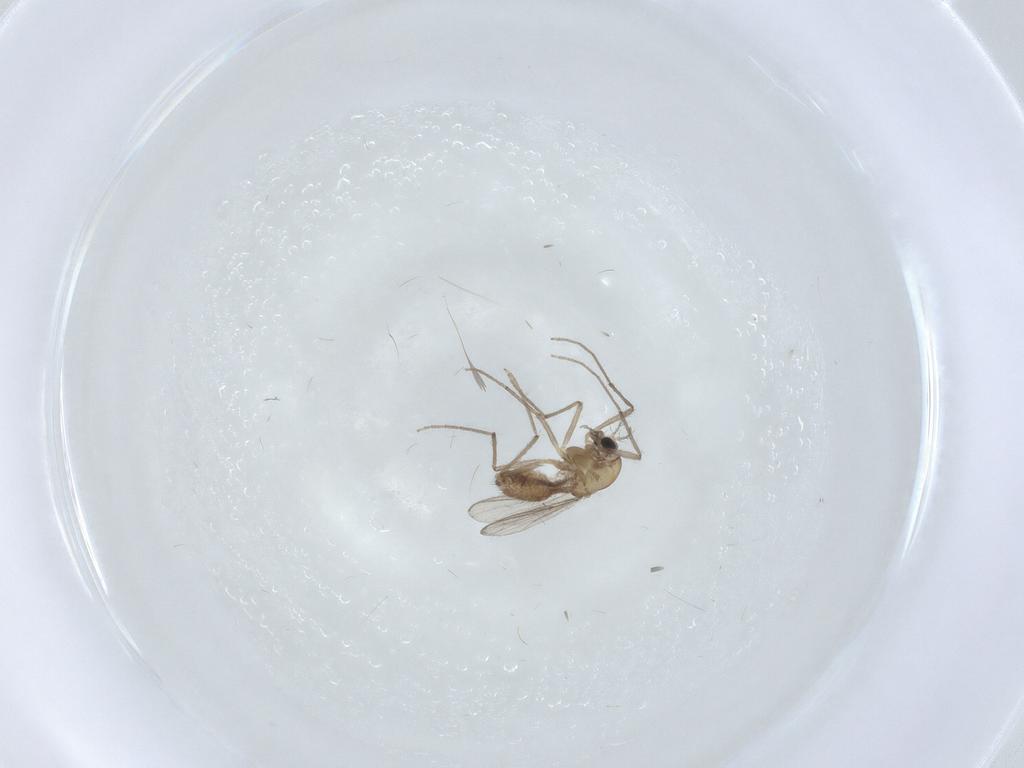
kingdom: Animalia
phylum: Arthropoda
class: Insecta
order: Diptera
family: Chironomidae
